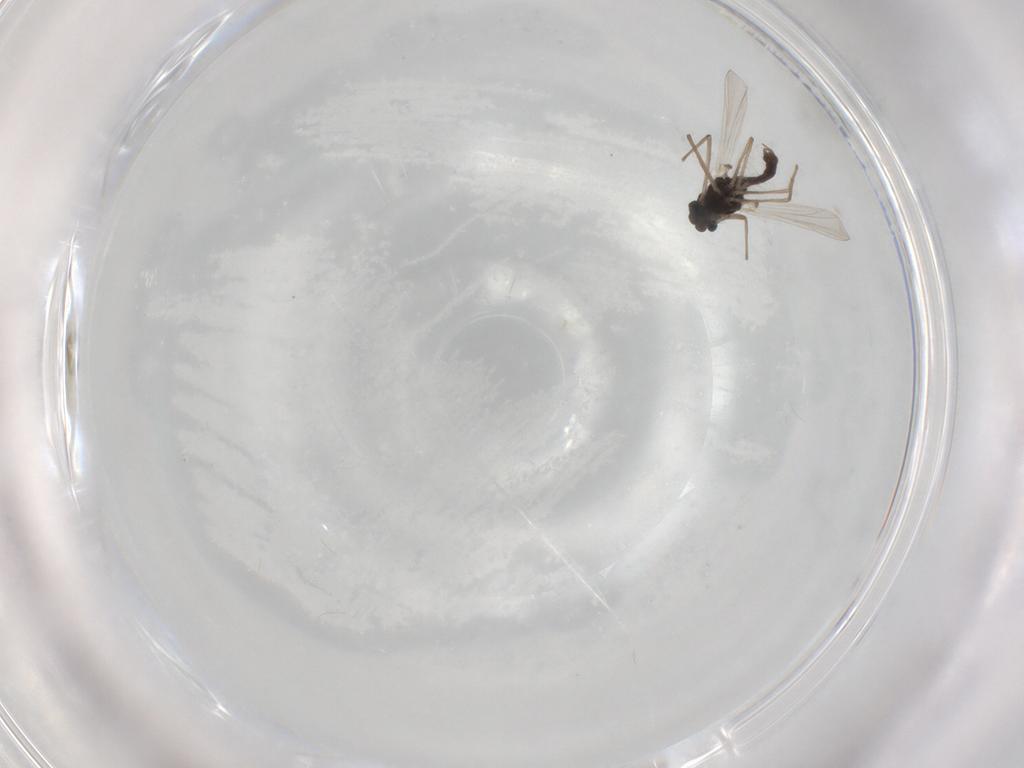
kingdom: Animalia
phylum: Arthropoda
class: Insecta
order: Diptera
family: Chironomidae
